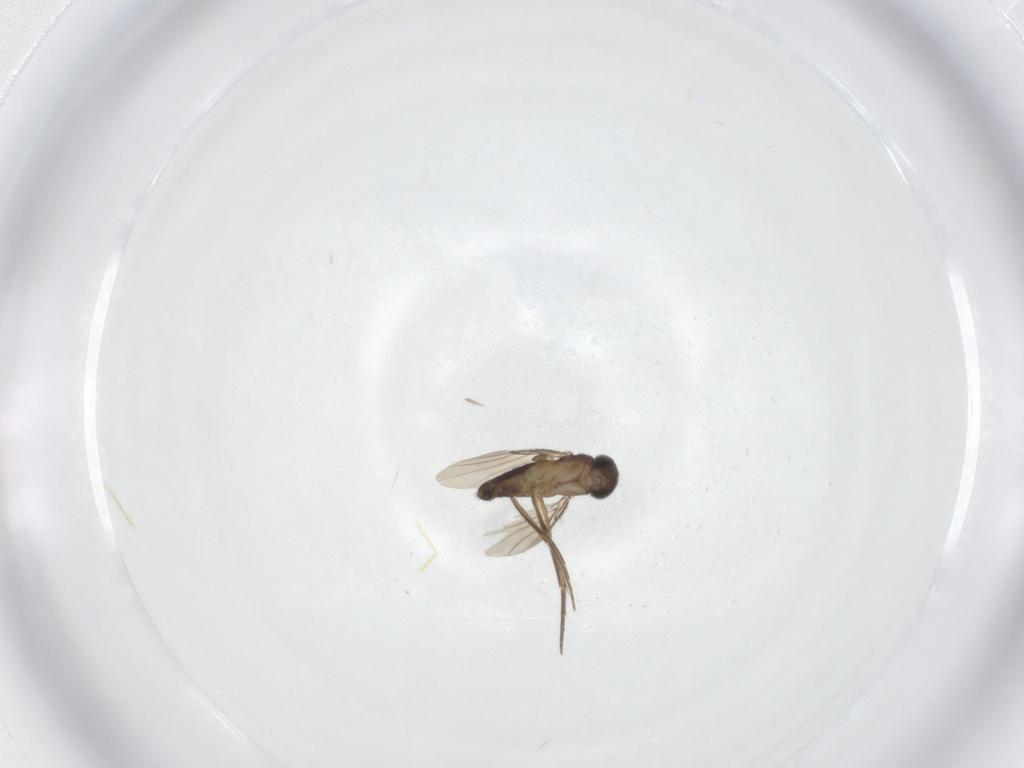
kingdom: Animalia
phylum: Arthropoda
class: Insecta
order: Diptera
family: Phoridae
